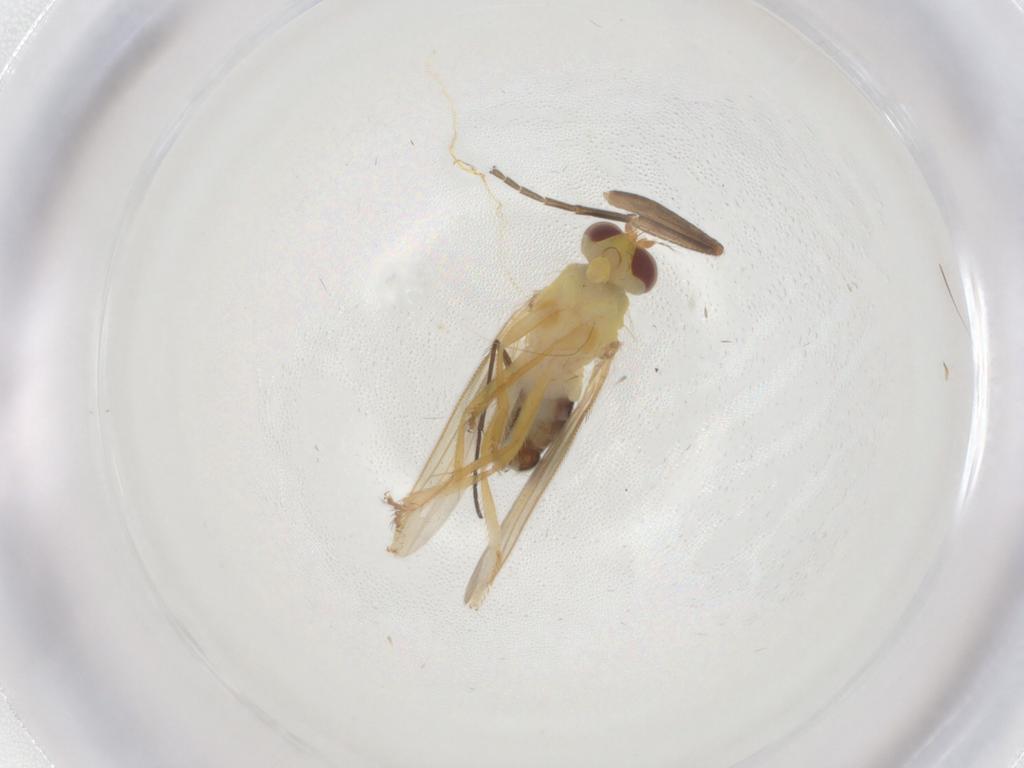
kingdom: Animalia
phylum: Arthropoda
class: Insecta
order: Diptera
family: Periscelididae
